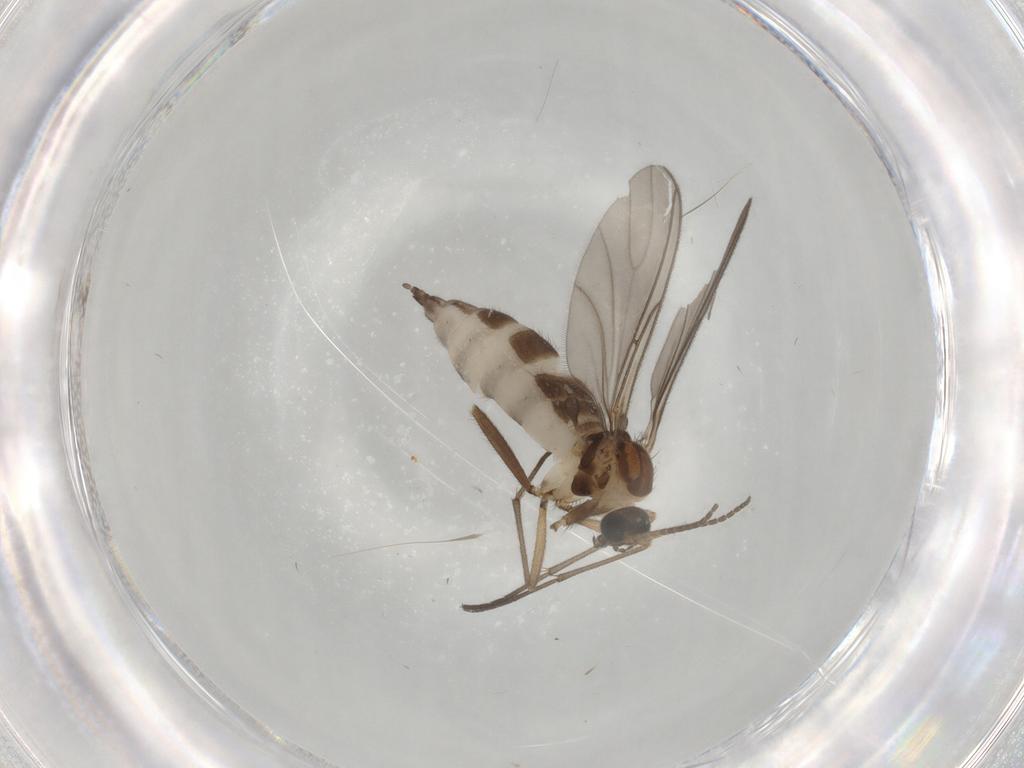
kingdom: Animalia
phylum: Arthropoda
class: Insecta
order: Diptera
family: Sciaridae
